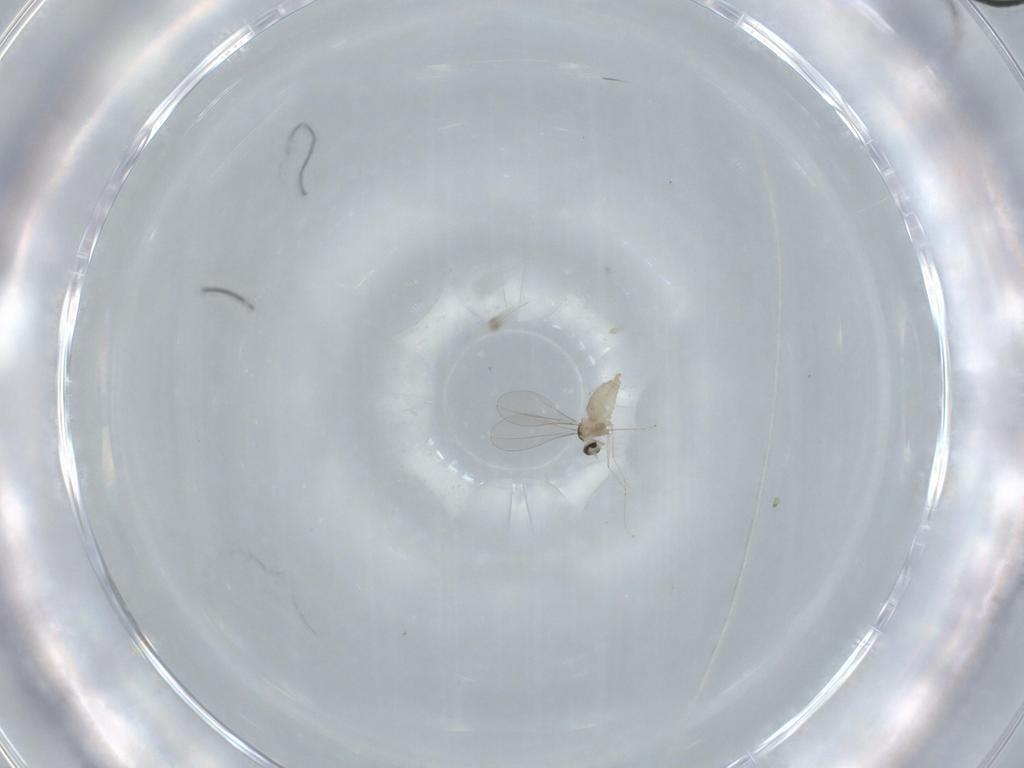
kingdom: Animalia
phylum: Arthropoda
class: Insecta
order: Diptera
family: Cecidomyiidae
